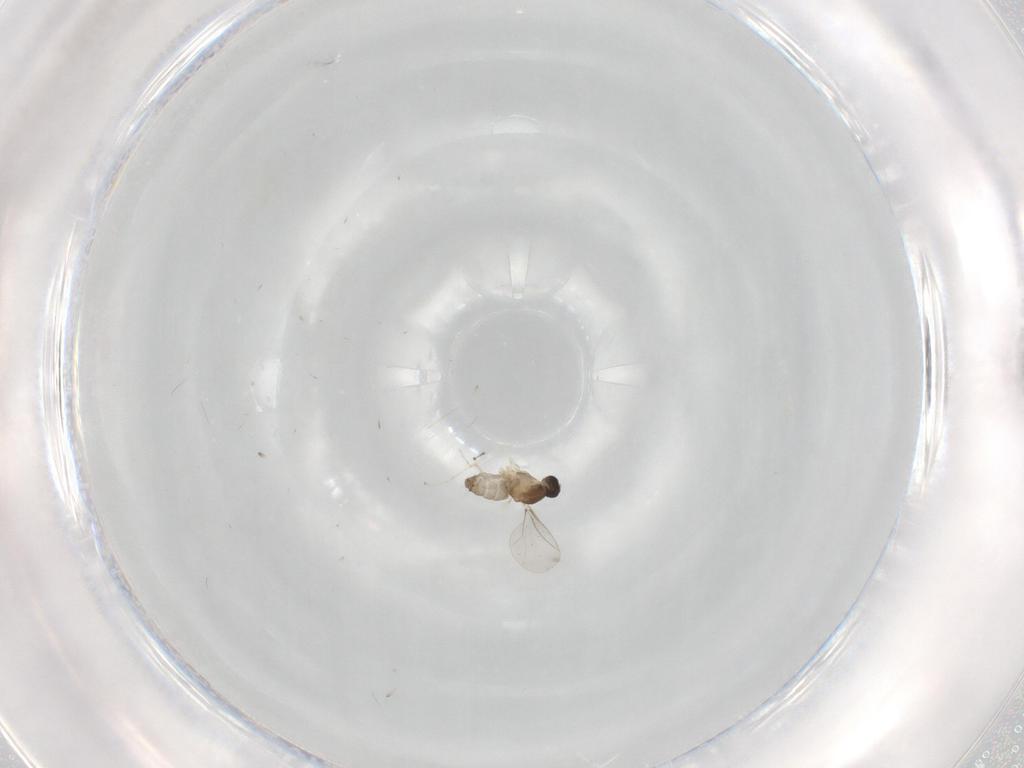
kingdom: Animalia
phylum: Arthropoda
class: Insecta
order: Diptera
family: Cecidomyiidae
